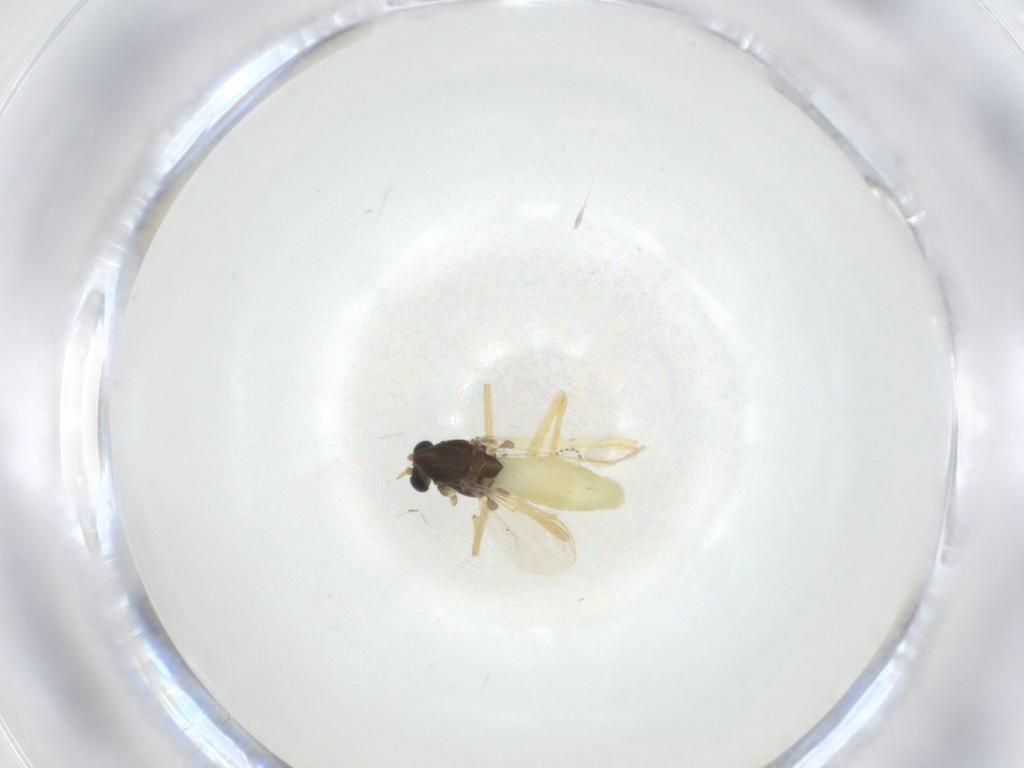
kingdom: Animalia
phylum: Arthropoda
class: Insecta
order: Diptera
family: Chironomidae
